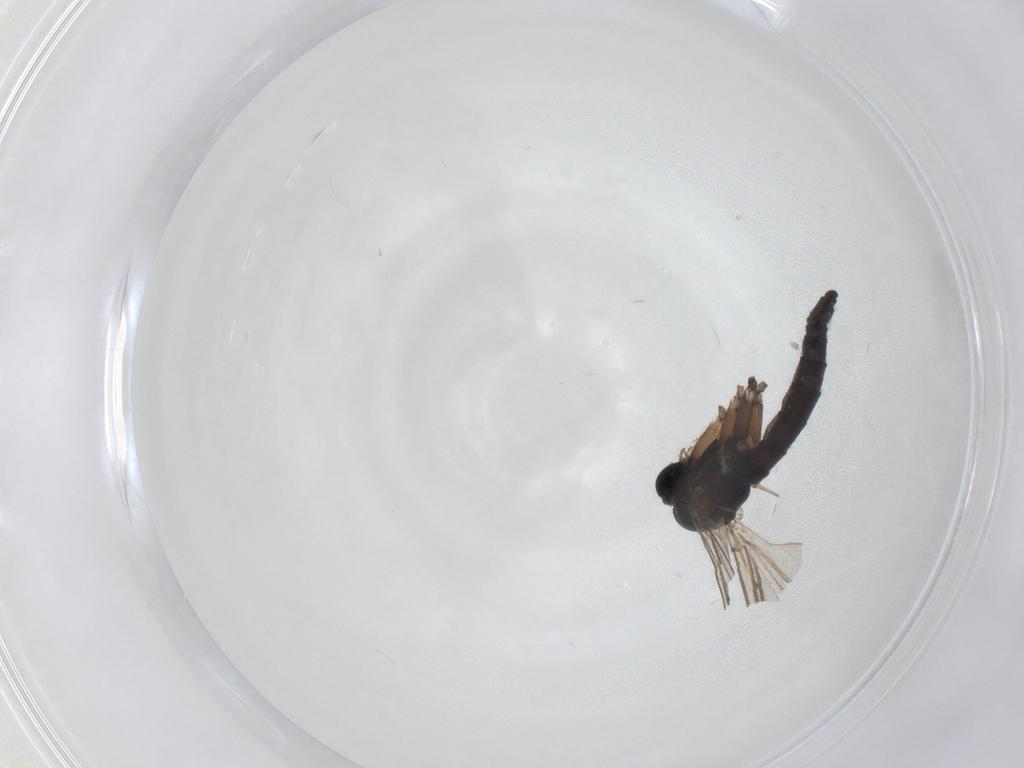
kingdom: Animalia
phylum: Arthropoda
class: Insecta
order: Diptera
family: Sciaridae
